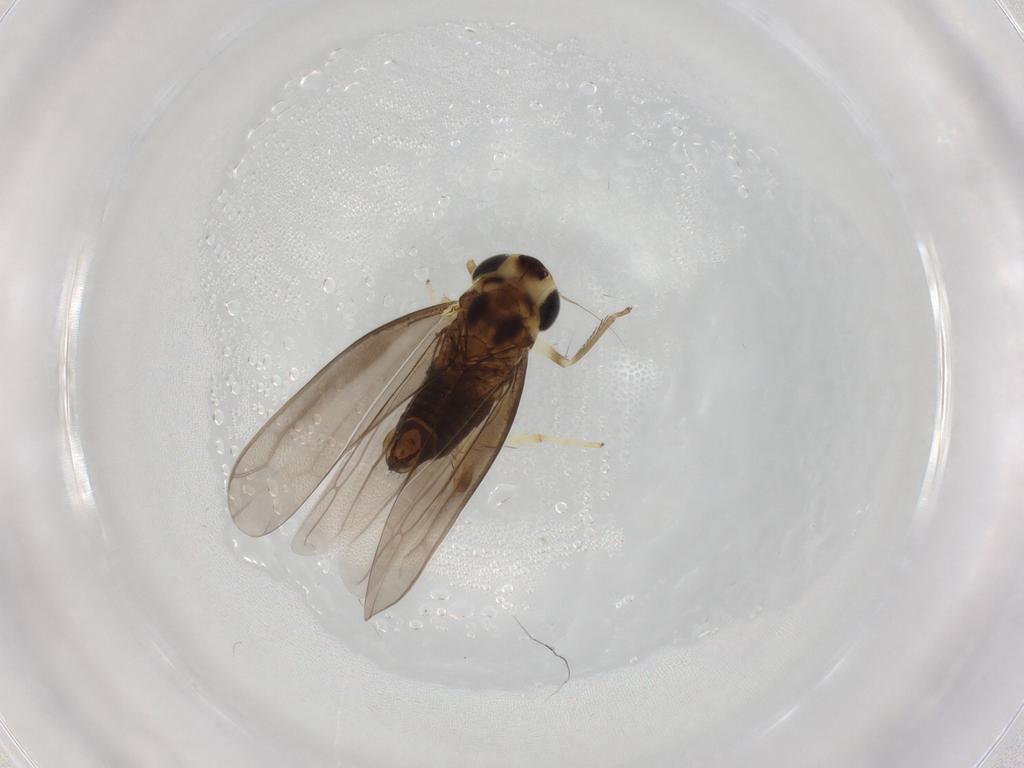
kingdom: Animalia
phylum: Arthropoda
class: Insecta
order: Hemiptera
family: Cicadellidae
